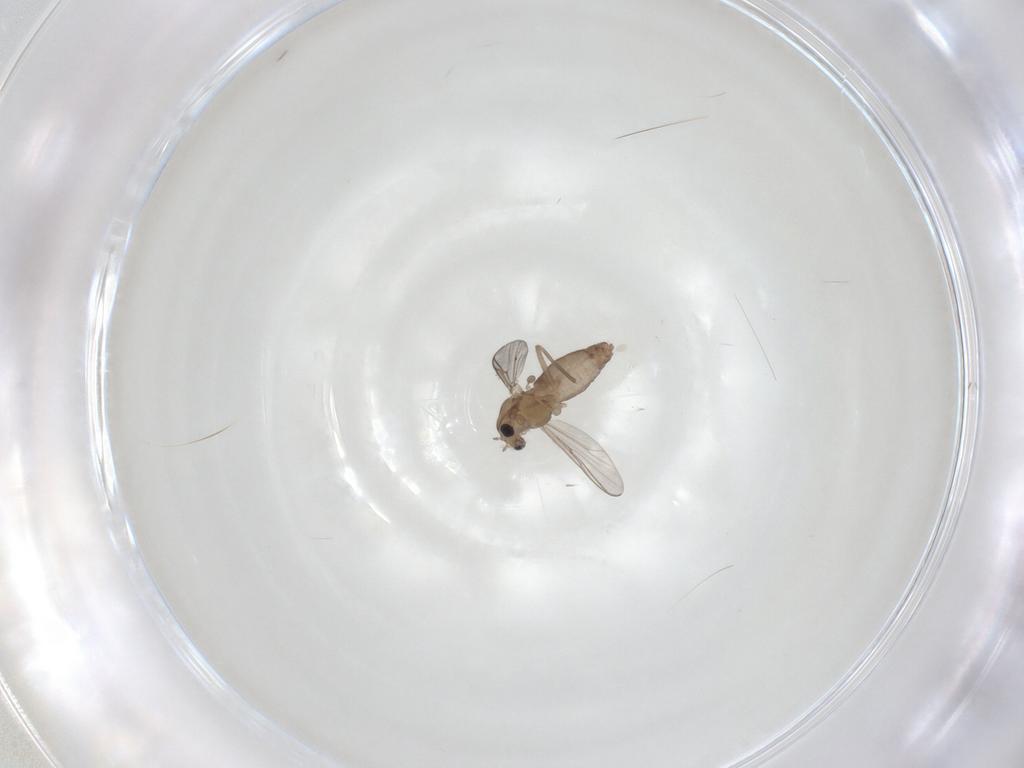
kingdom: Animalia
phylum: Arthropoda
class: Insecta
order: Diptera
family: Chironomidae
